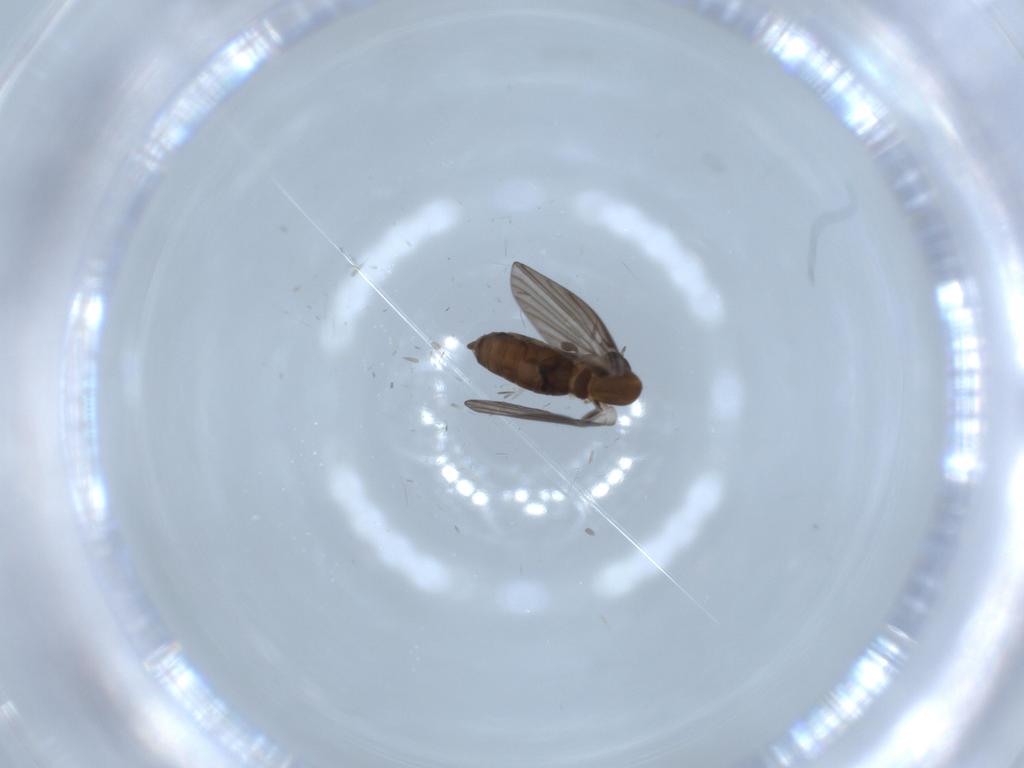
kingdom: Animalia
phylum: Arthropoda
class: Insecta
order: Diptera
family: Psychodidae
